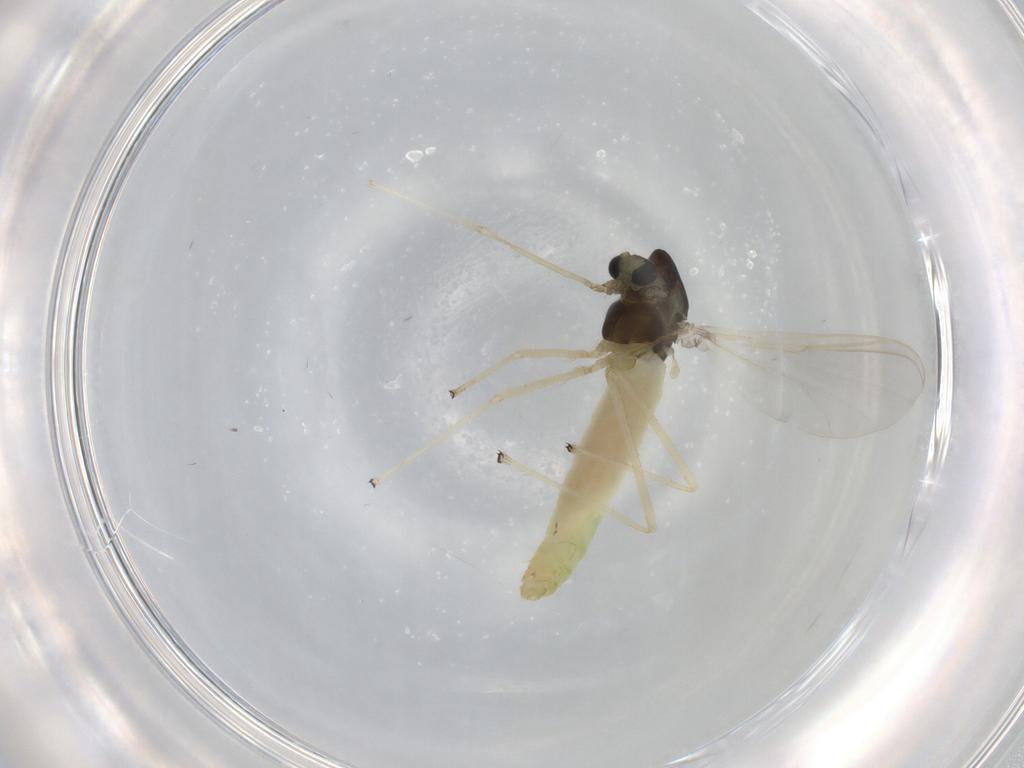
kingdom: Animalia
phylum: Arthropoda
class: Insecta
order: Diptera
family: Chironomidae
